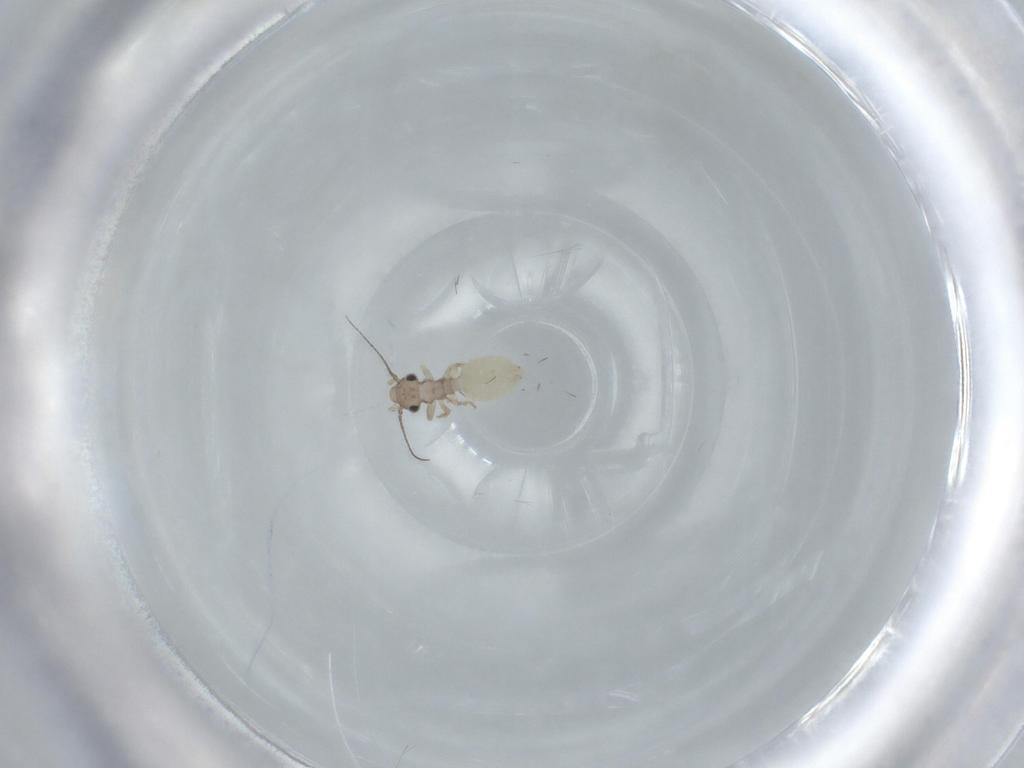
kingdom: Animalia
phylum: Arthropoda
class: Insecta
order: Psocodea
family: Lepidopsocidae
